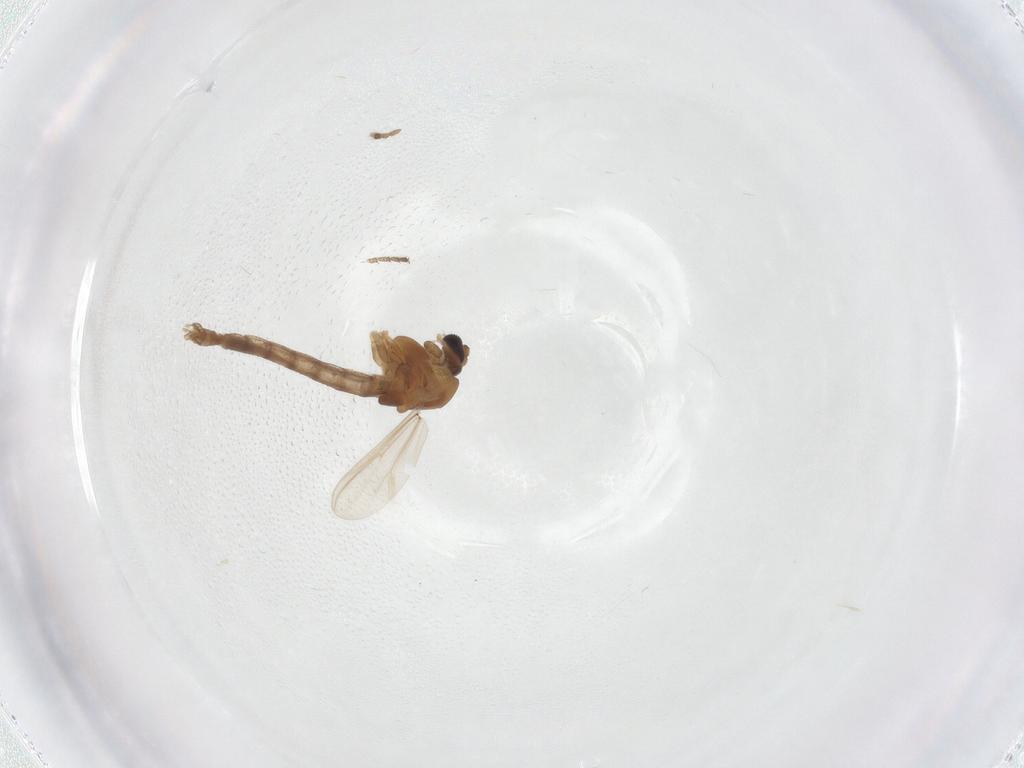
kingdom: Animalia
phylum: Arthropoda
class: Insecta
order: Diptera
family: Chironomidae
